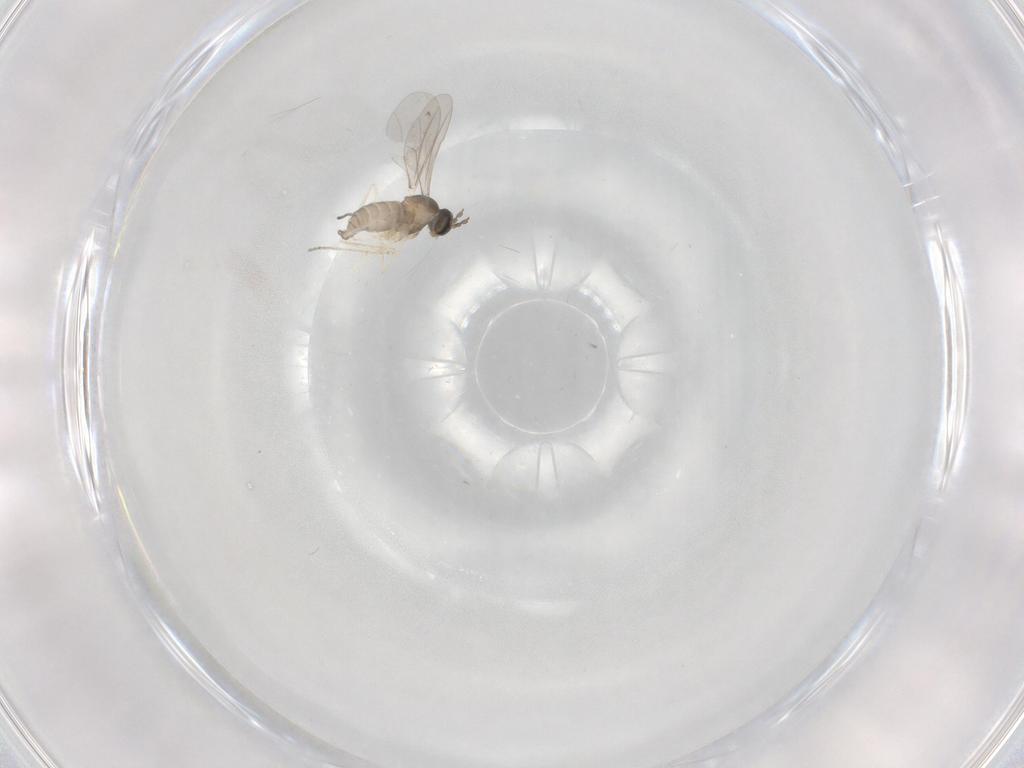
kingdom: Animalia
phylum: Arthropoda
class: Insecta
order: Diptera
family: Cecidomyiidae
